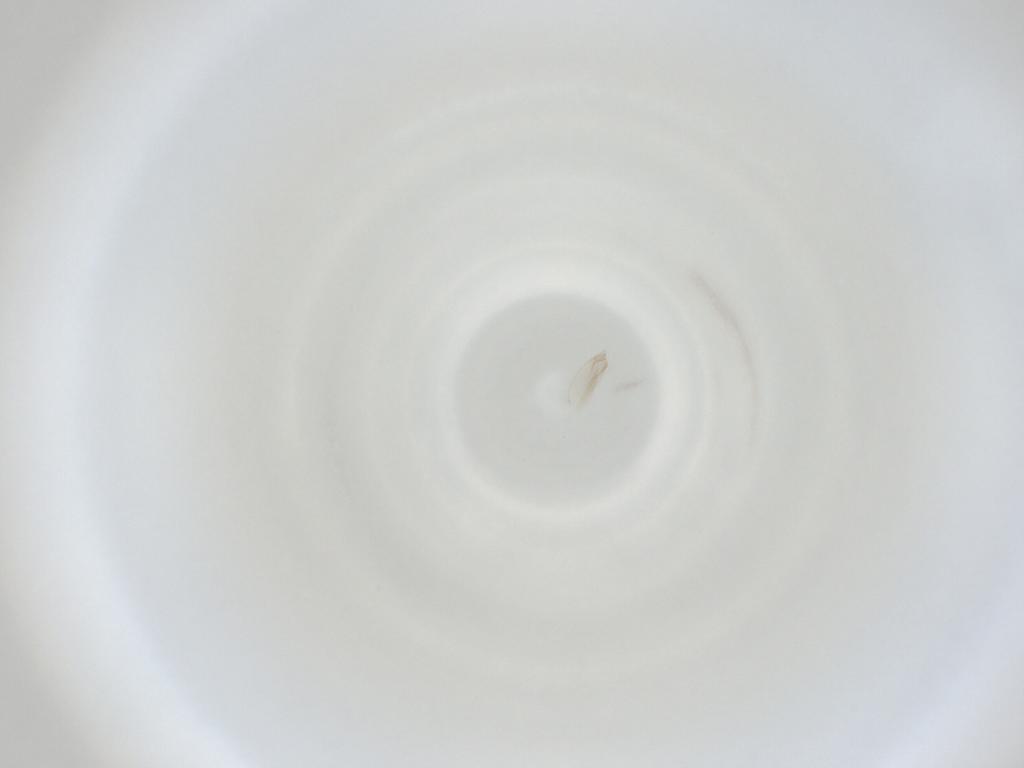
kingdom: Animalia
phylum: Arthropoda
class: Insecta
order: Diptera
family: Cecidomyiidae
